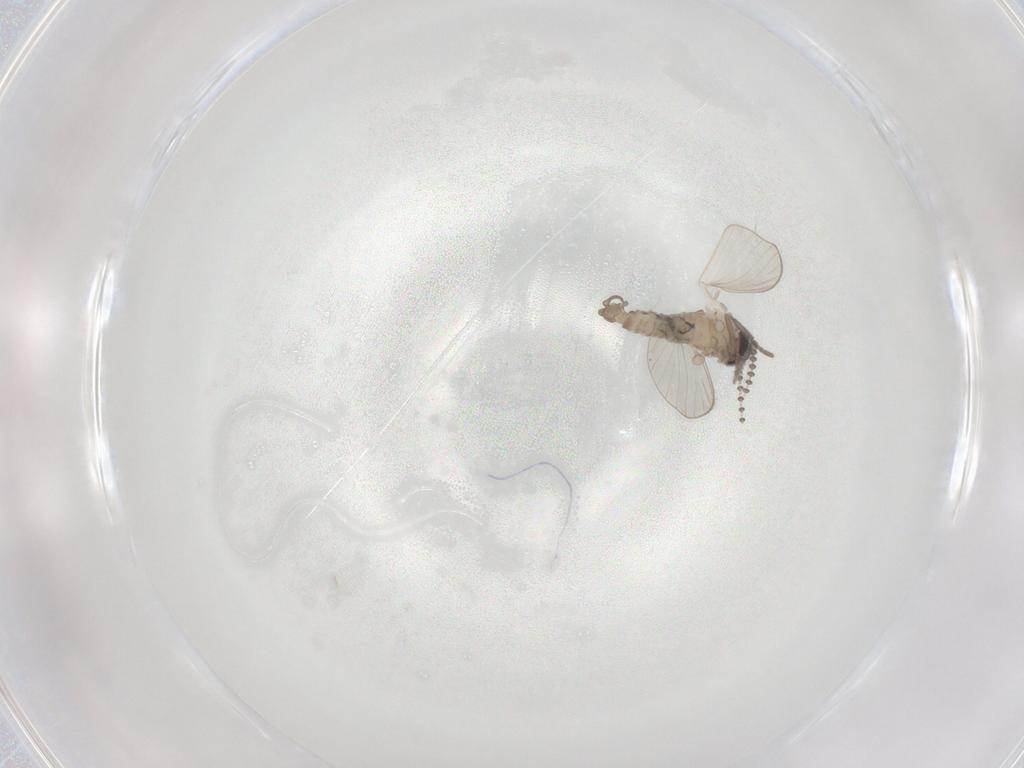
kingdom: Animalia
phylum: Arthropoda
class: Insecta
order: Diptera
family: Psychodidae
